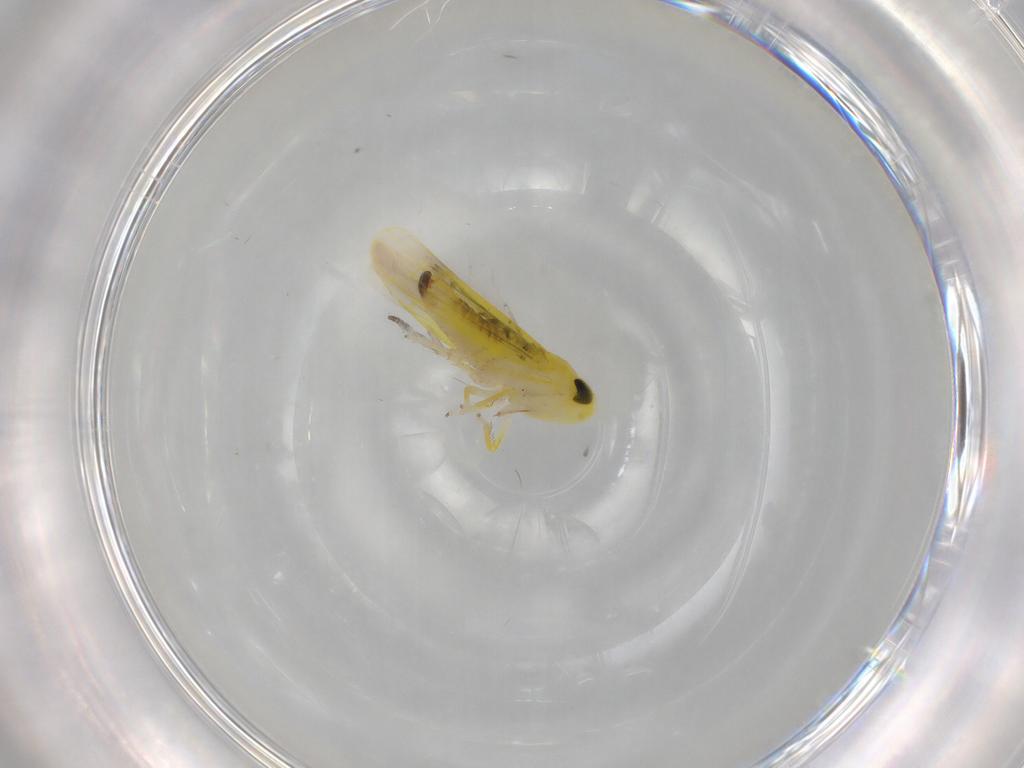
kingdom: Animalia
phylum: Arthropoda
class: Insecta
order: Hemiptera
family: Cicadellidae
